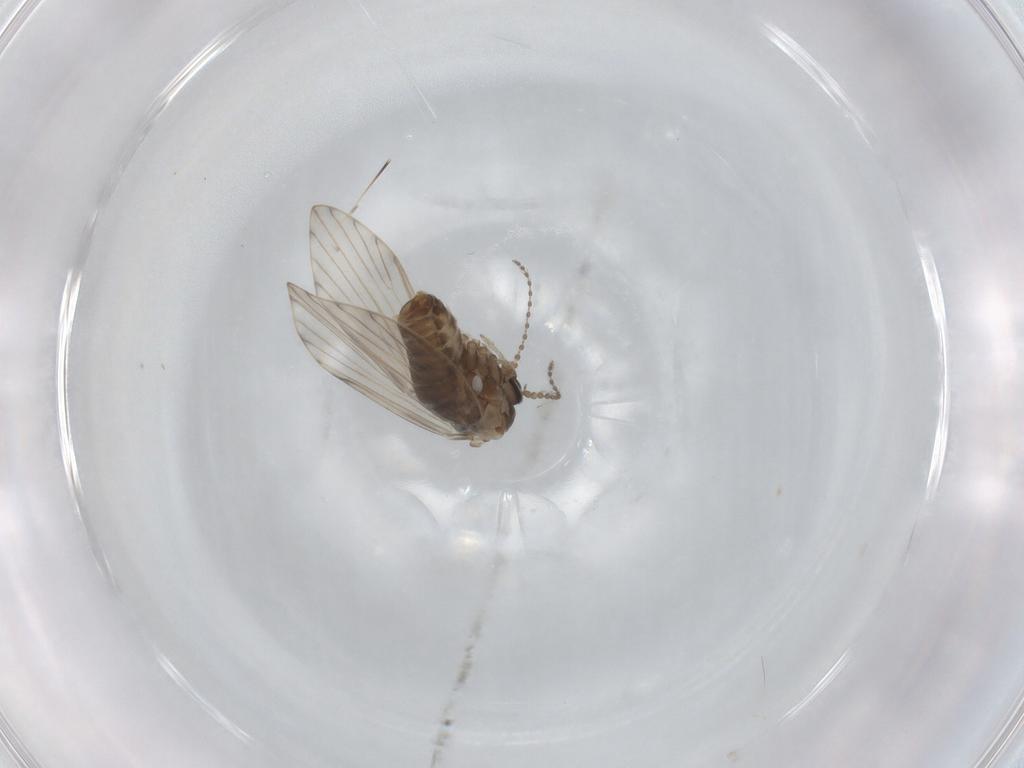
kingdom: Animalia
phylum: Arthropoda
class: Insecta
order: Diptera
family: Psychodidae
